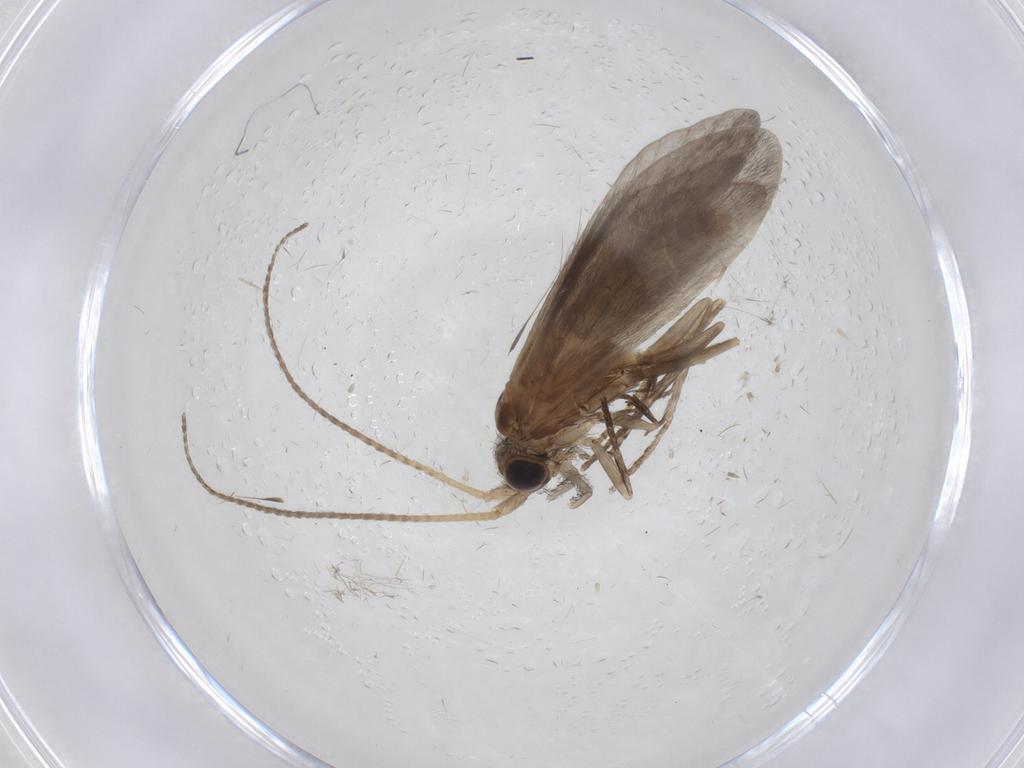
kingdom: Animalia
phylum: Arthropoda
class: Insecta
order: Trichoptera
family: Helicopsychidae
